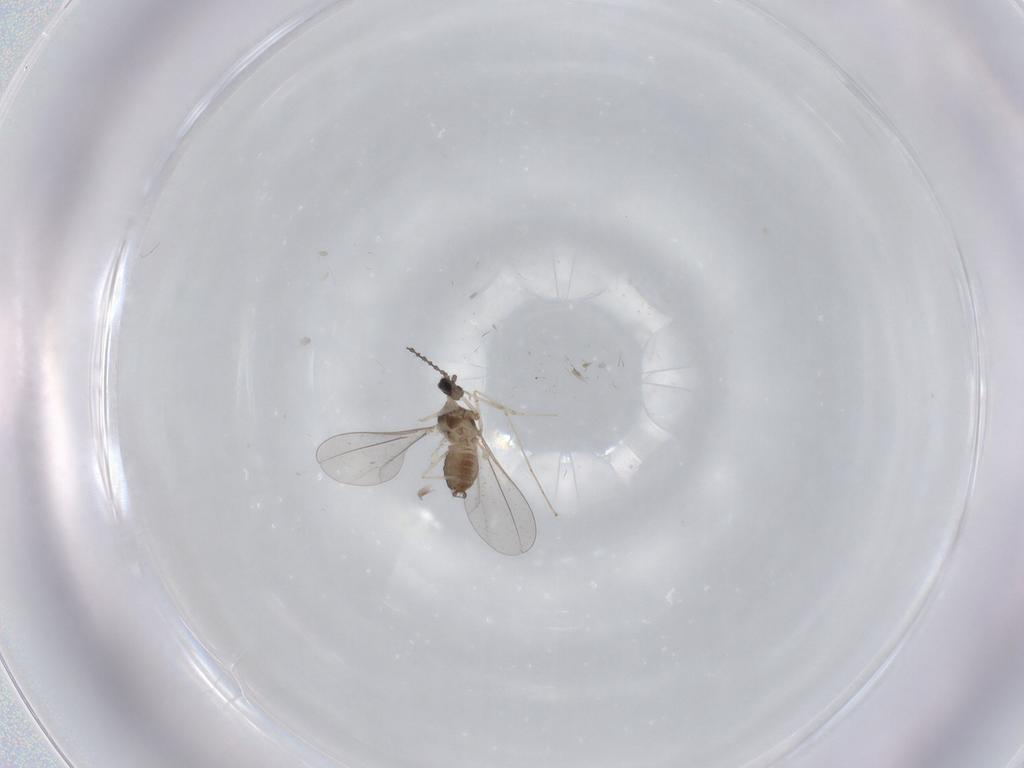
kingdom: Animalia
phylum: Arthropoda
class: Insecta
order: Diptera
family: Cecidomyiidae
